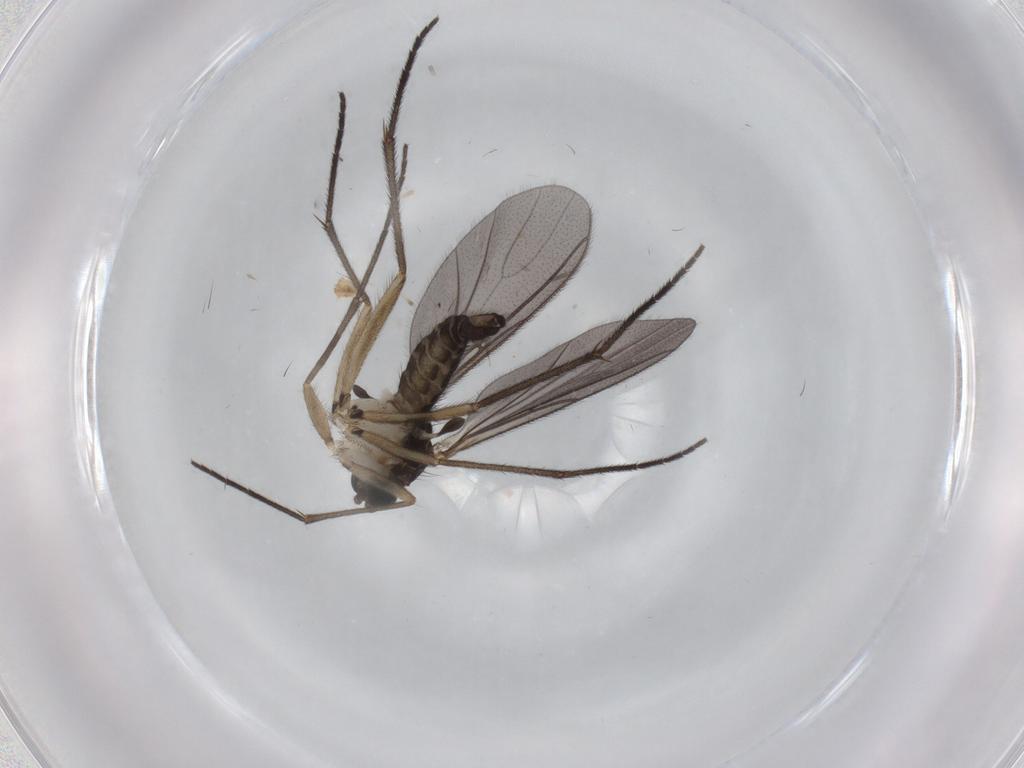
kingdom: Animalia
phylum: Arthropoda
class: Insecta
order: Diptera
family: Sciaridae
